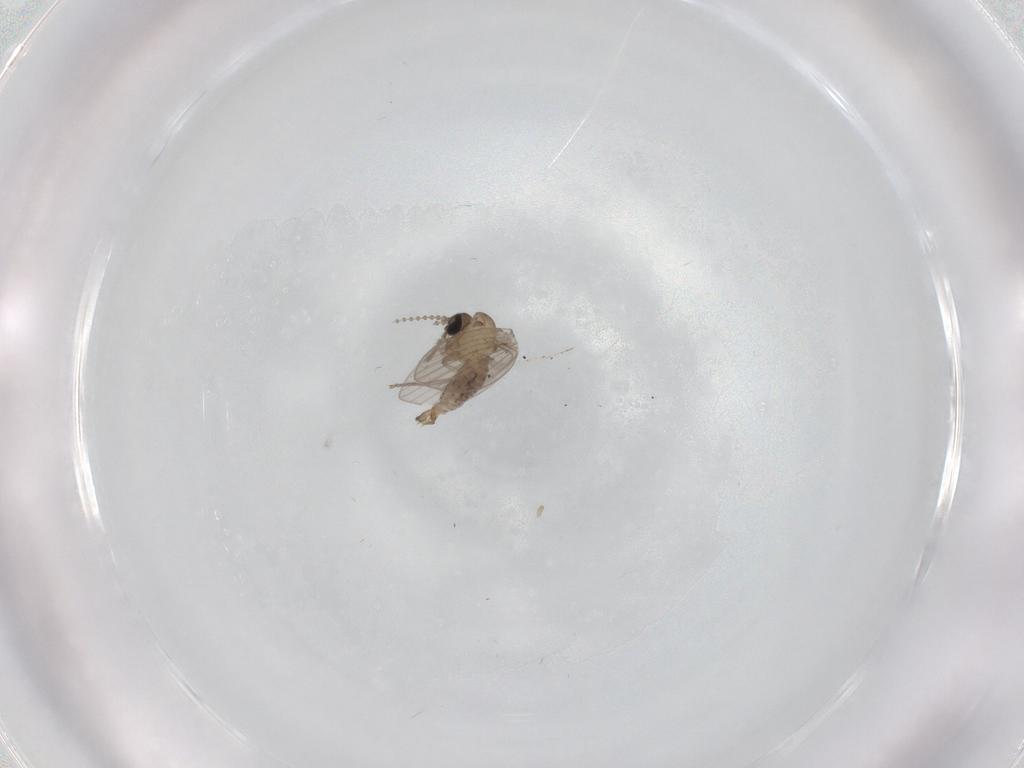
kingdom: Animalia
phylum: Arthropoda
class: Insecta
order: Diptera
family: Psychodidae
